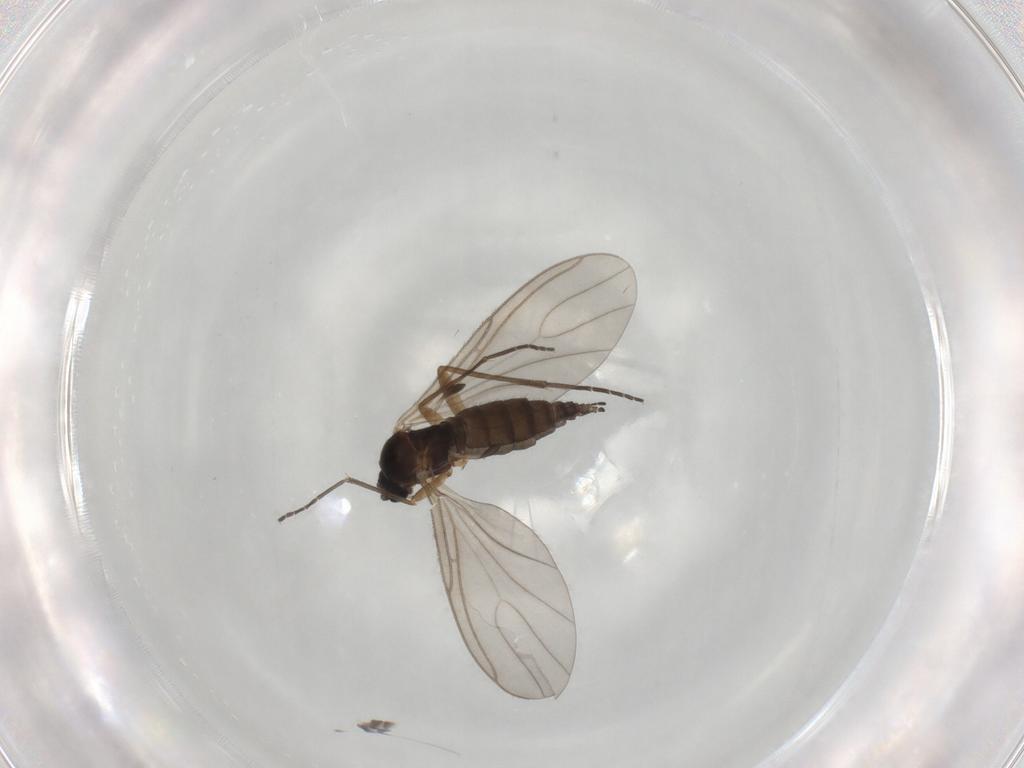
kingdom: Animalia
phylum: Arthropoda
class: Insecta
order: Diptera
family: Sciaridae
